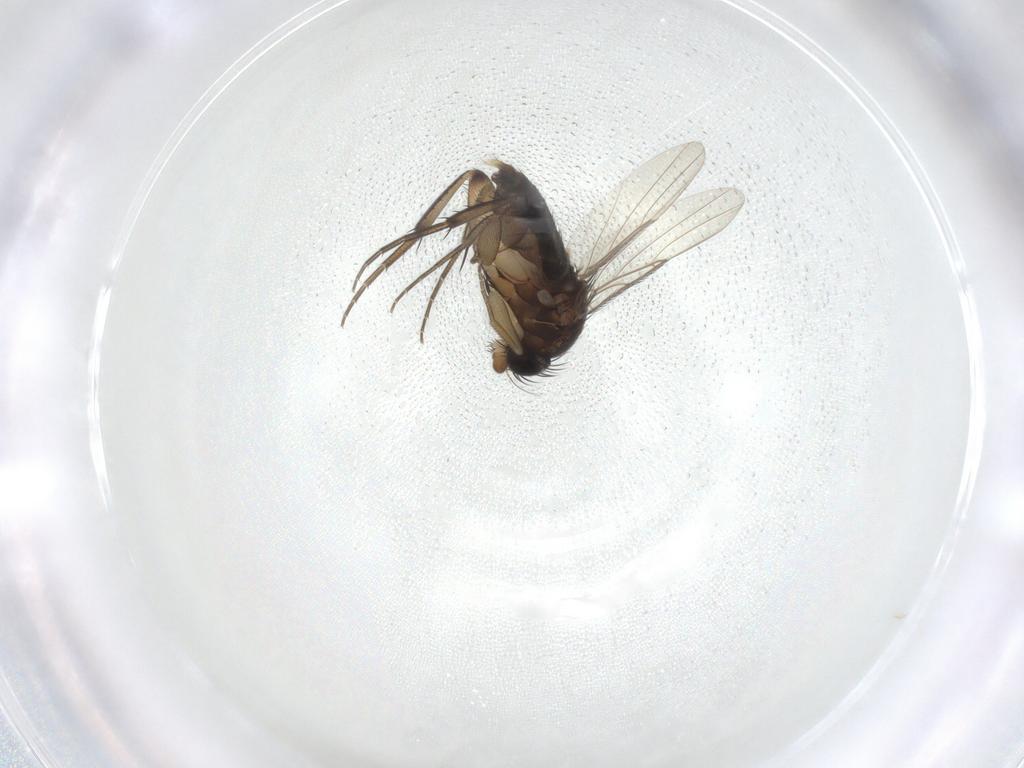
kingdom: Animalia
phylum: Arthropoda
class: Insecta
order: Diptera
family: Phoridae
